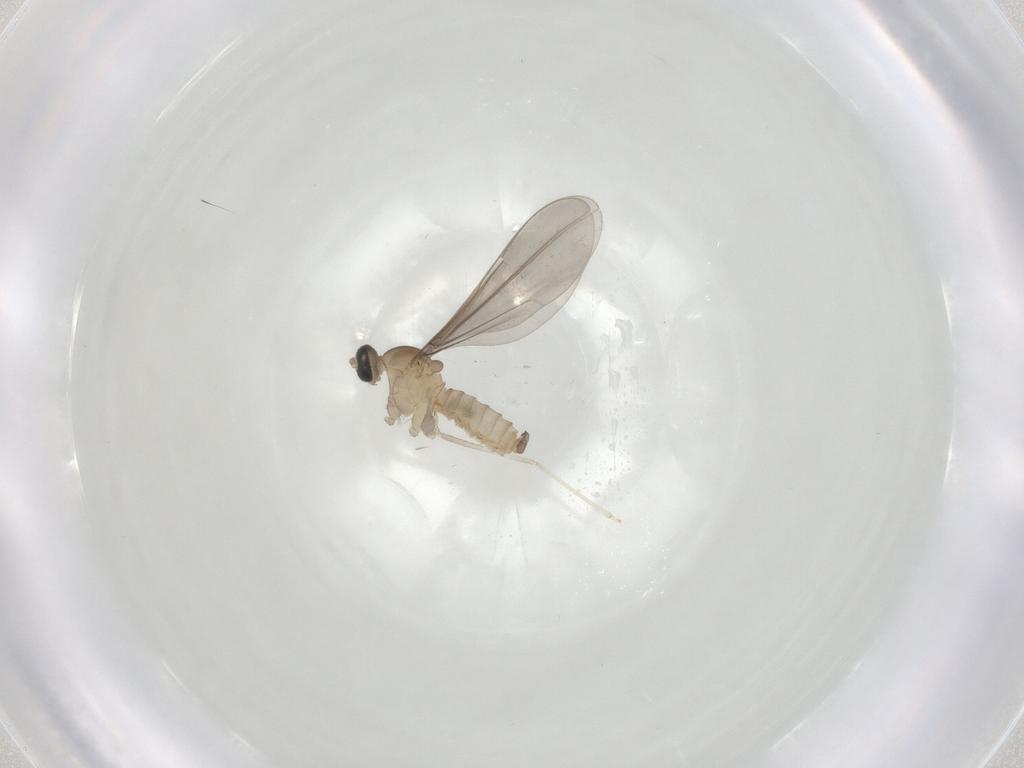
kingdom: Animalia
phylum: Arthropoda
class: Insecta
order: Diptera
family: Cecidomyiidae
